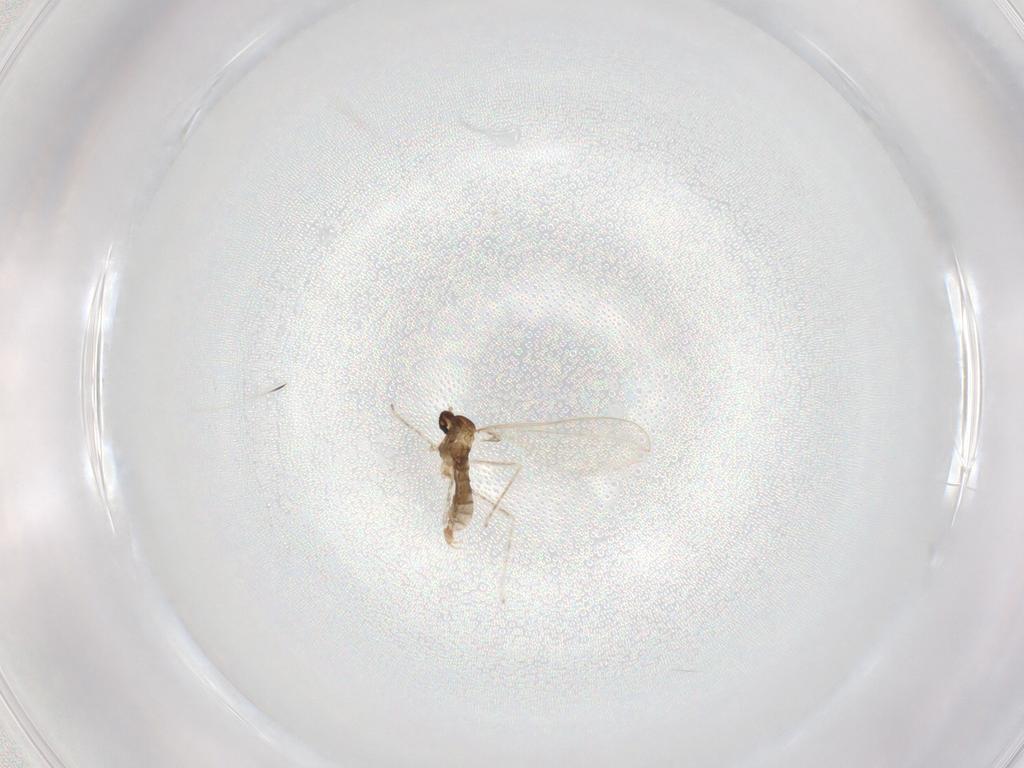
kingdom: Animalia
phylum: Arthropoda
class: Insecta
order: Diptera
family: Cecidomyiidae
